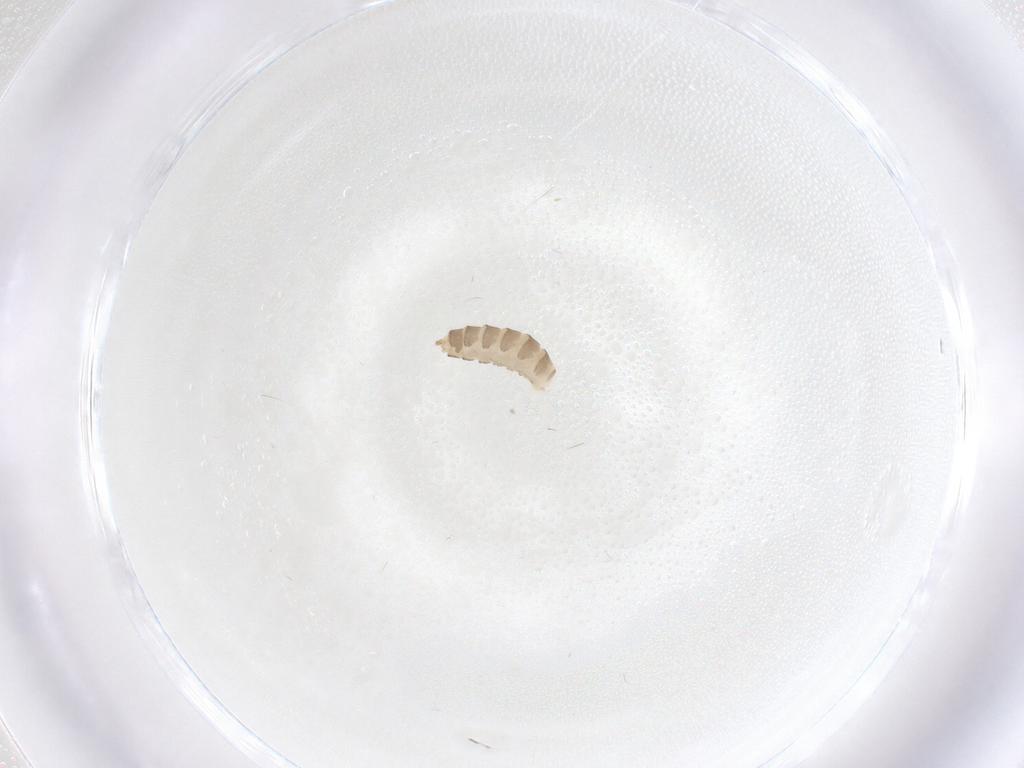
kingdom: Animalia
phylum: Arthropoda
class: Insecta
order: Diptera
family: Cecidomyiidae
